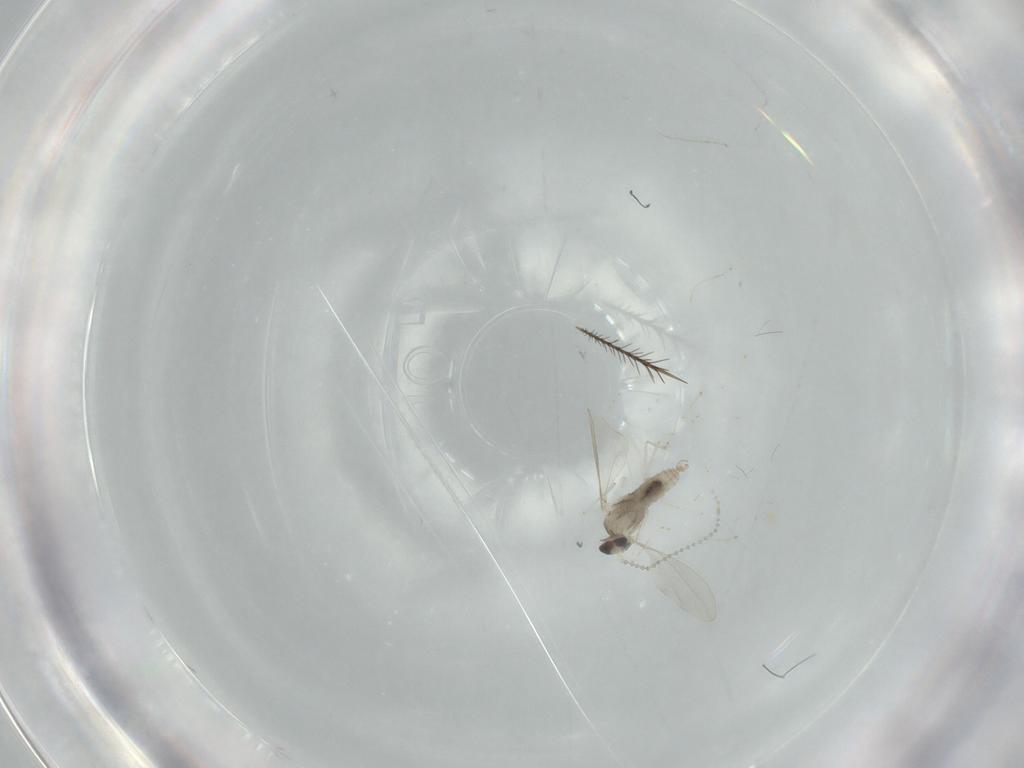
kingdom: Animalia
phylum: Arthropoda
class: Insecta
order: Diptera
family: Cecidomyiidae
